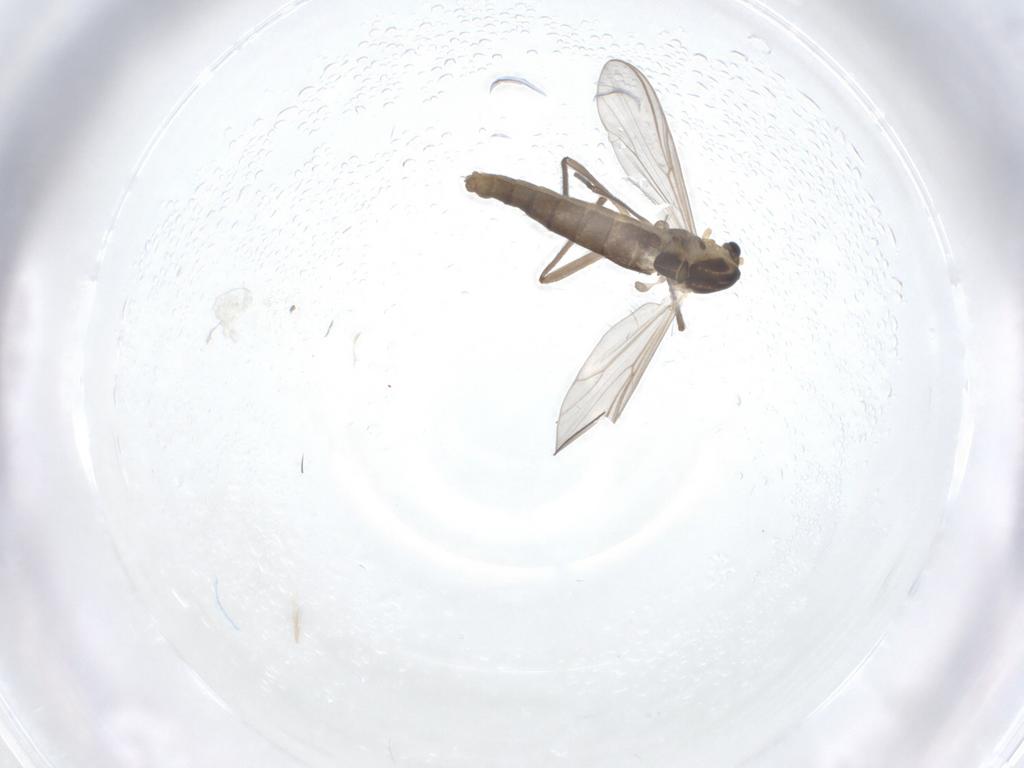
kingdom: Animalia
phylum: Arthropoda
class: Insecta
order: Diptera
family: Chironomidae
